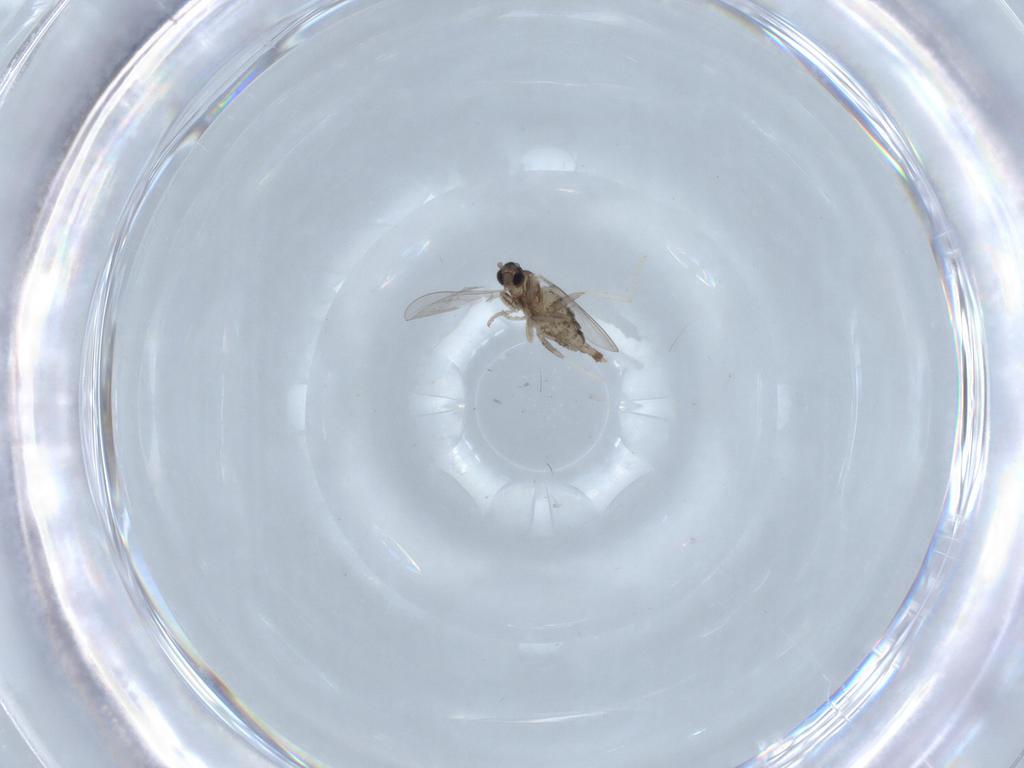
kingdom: Animalia
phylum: Arthropoda
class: Insecta
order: Diptera
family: Cecidomyiidae
